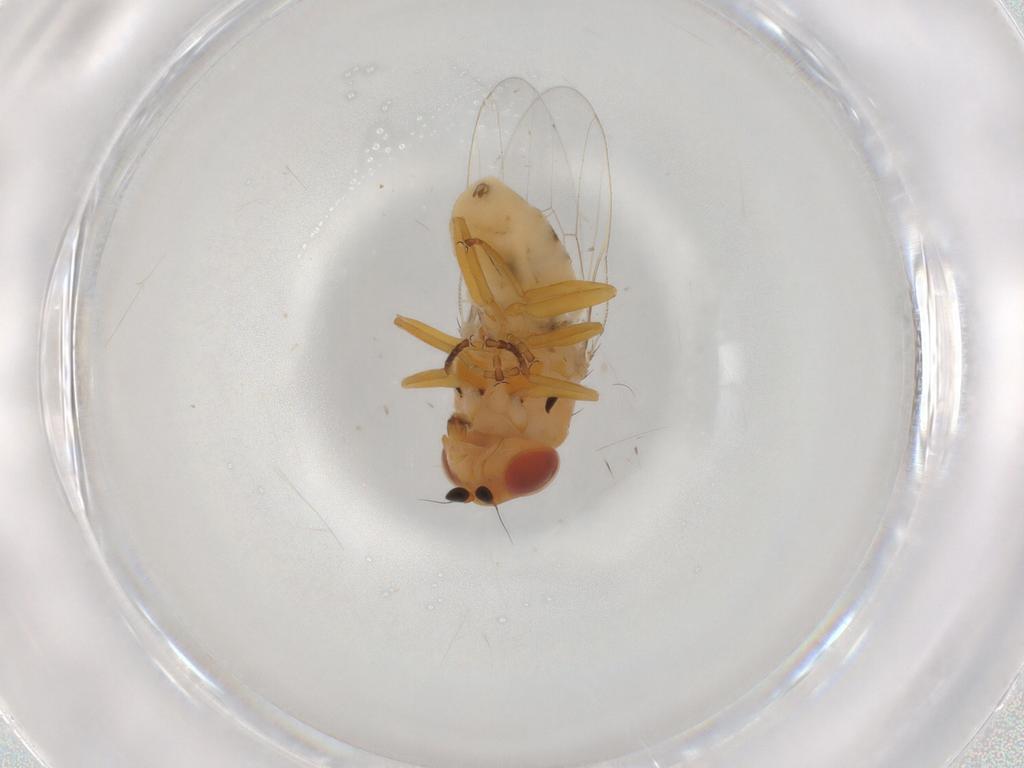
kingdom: Animalia
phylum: Arthropoda
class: Insecta
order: Diptera
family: Chloropidae
